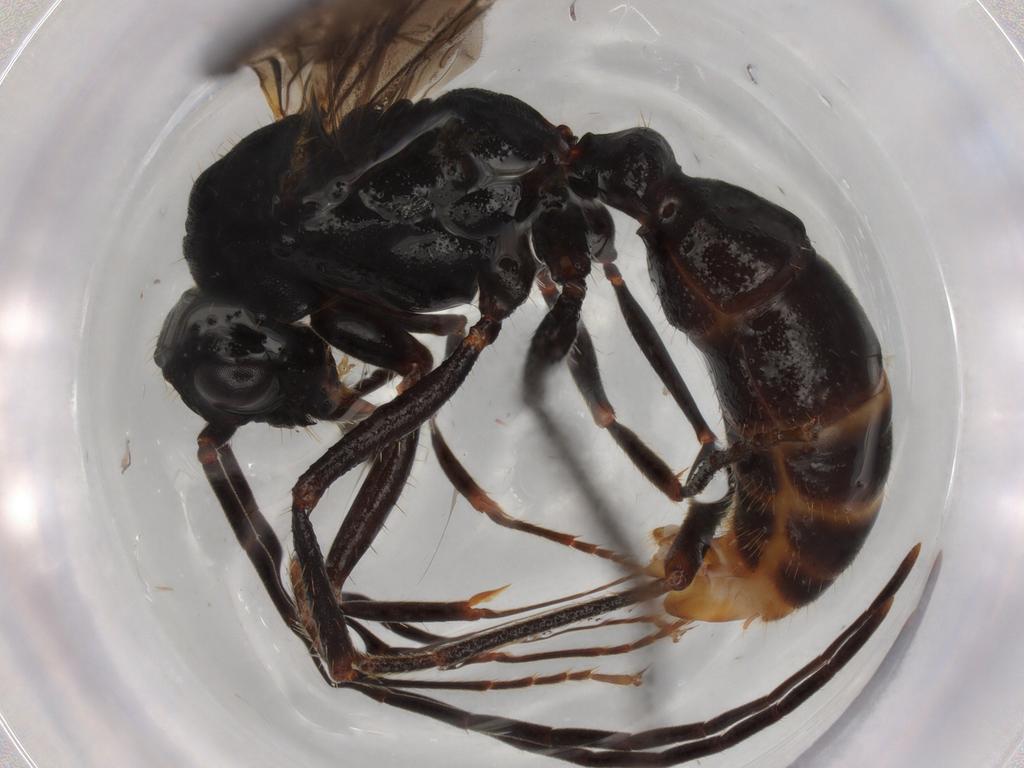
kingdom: Animalia
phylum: Arthropoda
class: Insecta
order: Hymenoptera
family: Formicidae
